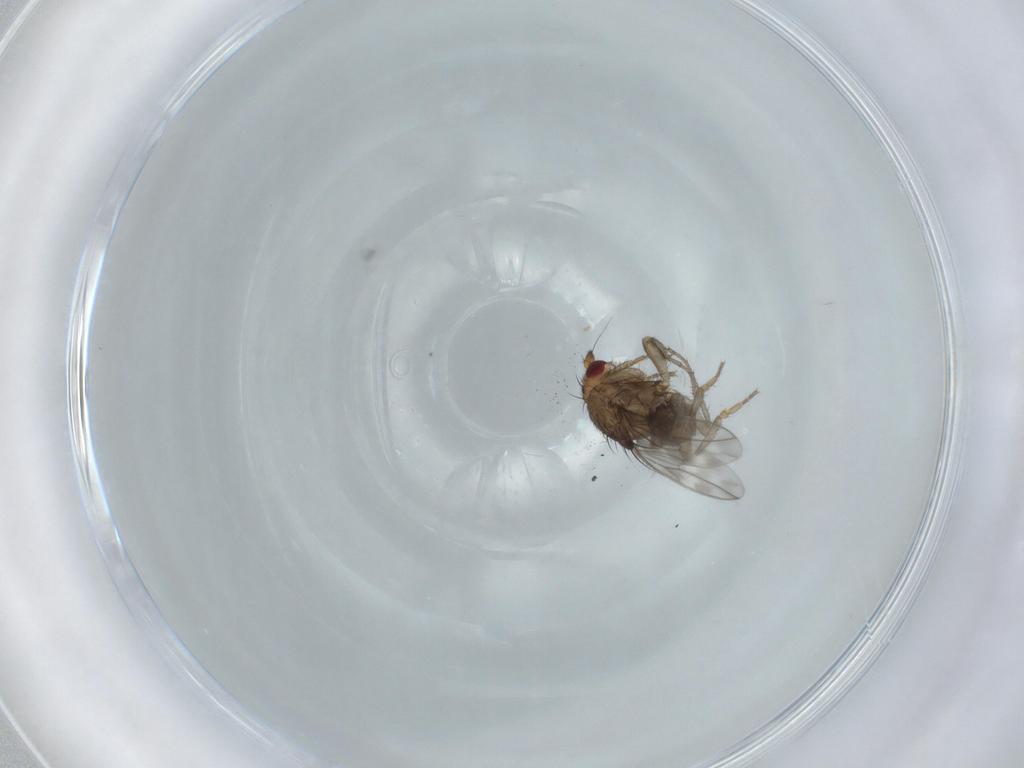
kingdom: Animalia
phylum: Arthropoda
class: Insecta
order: Diptera
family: Sphaeroceridae
